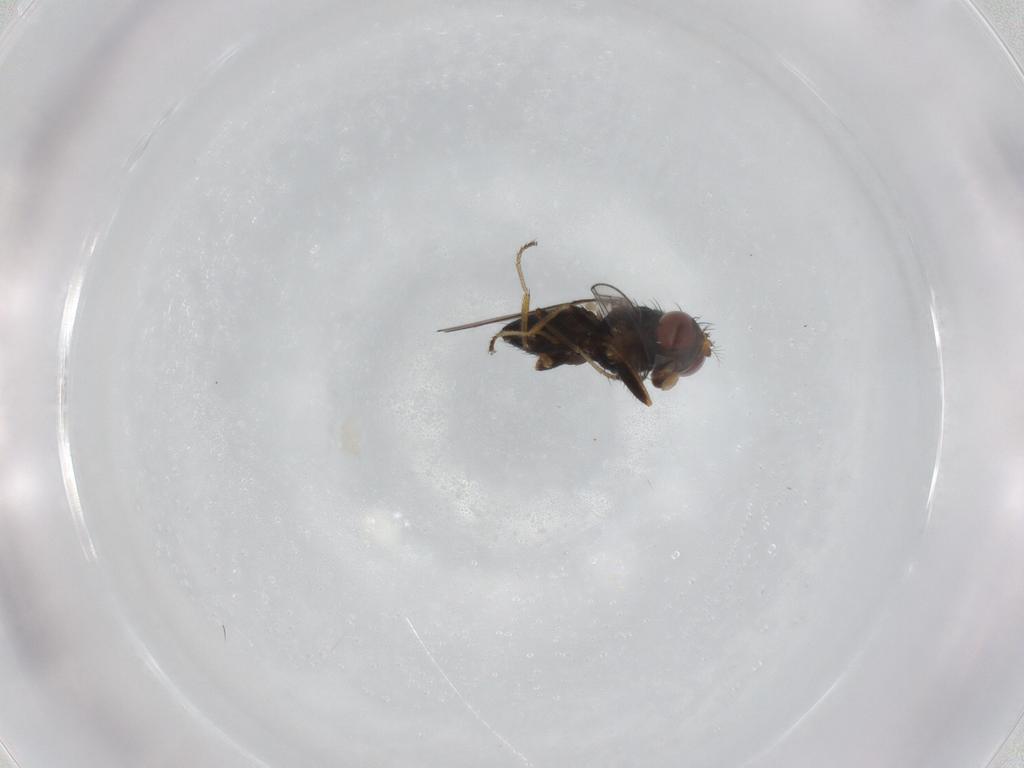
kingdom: Animalia
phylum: Arthropoda
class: Insecta
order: Diptera
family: Ephydridae
